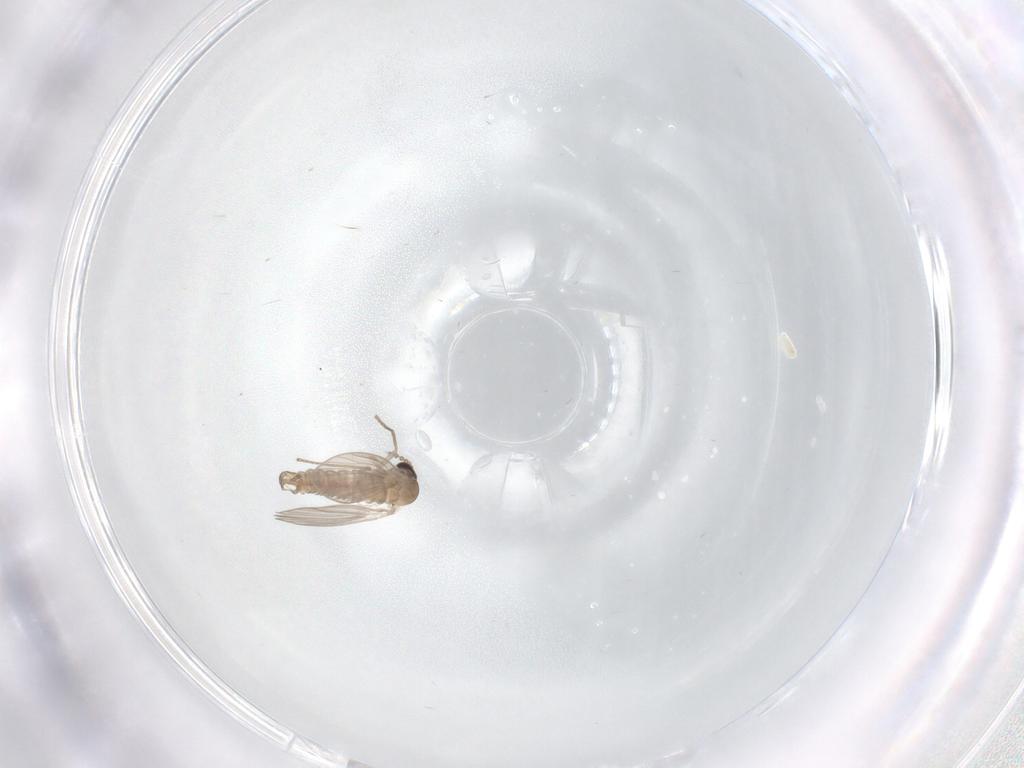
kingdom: Animalia
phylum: Arthropoda
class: Insecta
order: Diptera
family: Psychodidae
